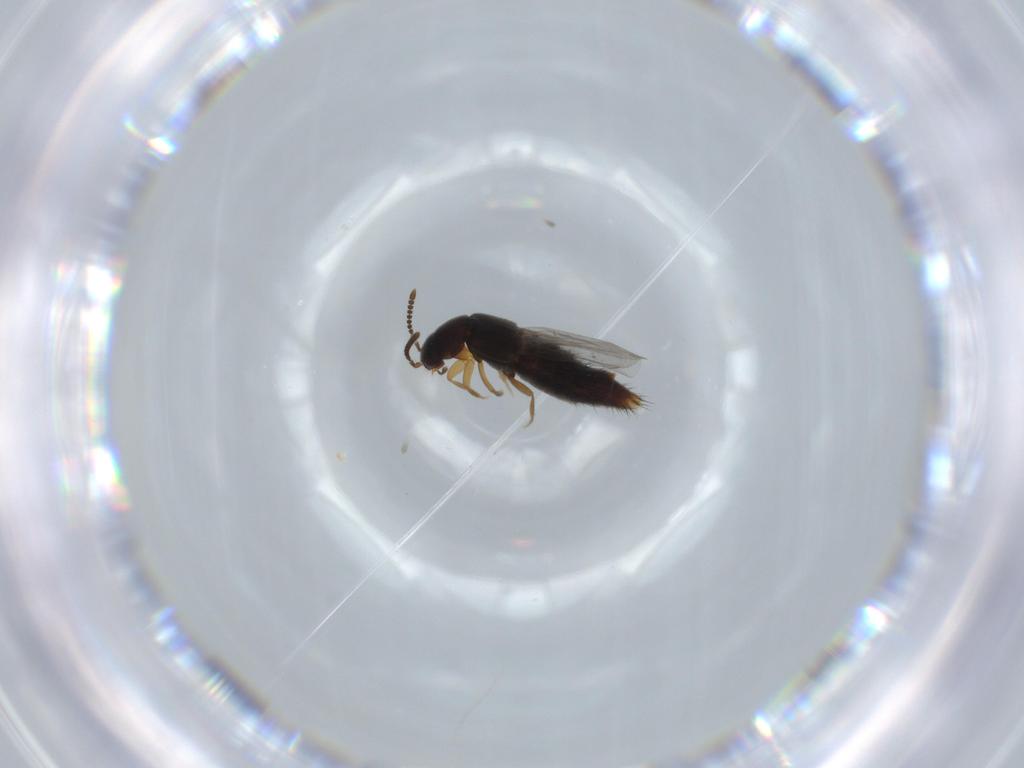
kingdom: Animalia
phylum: Arthropoda
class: Insecta
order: Coleoptera
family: Staphylinidae
